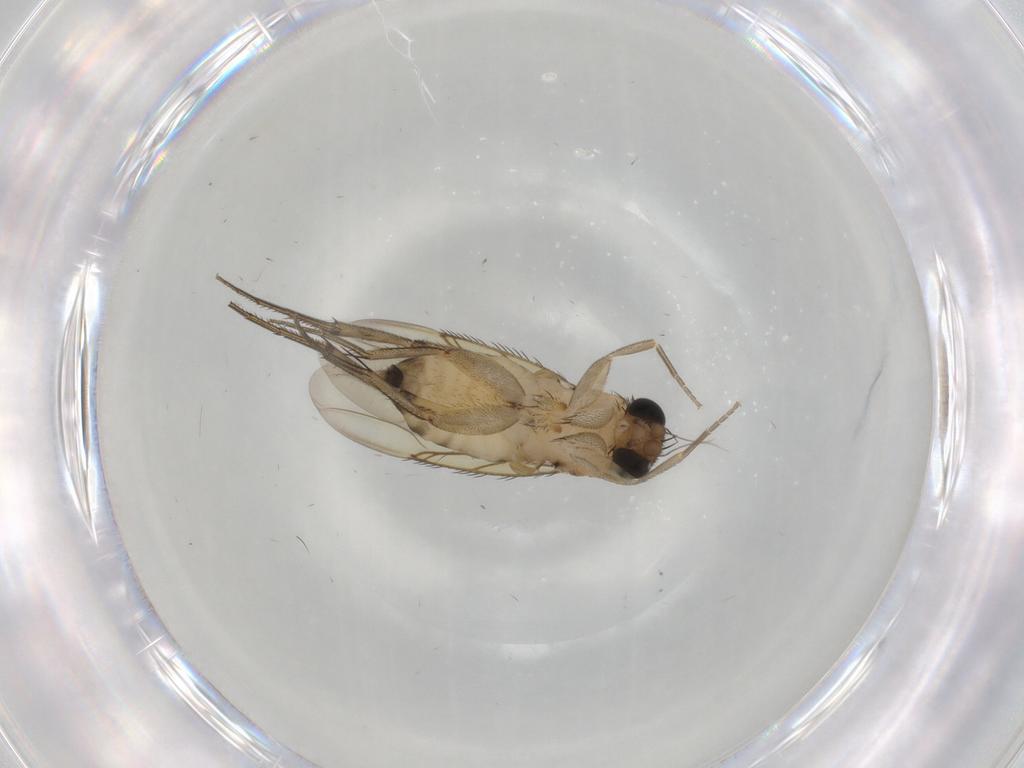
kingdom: Animalia
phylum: Arthropoda
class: Insecta
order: Diptera
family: Phoridae
